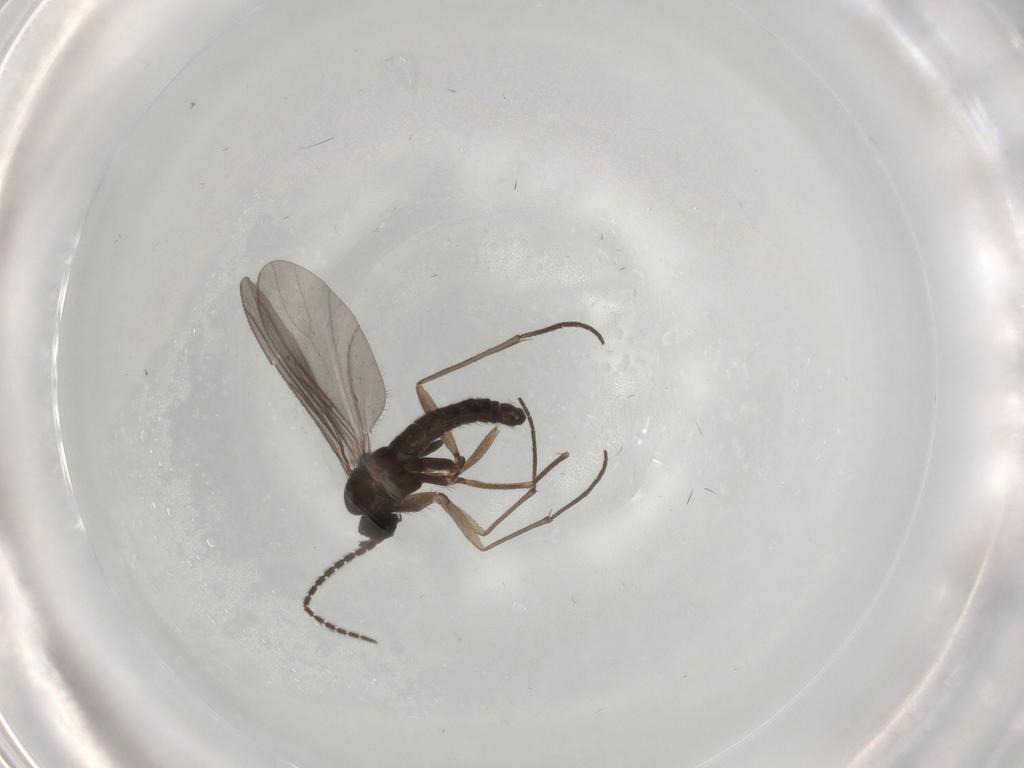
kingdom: Animalia
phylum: Arthropoda
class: Insecta
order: Diptera
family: Sciaridae
